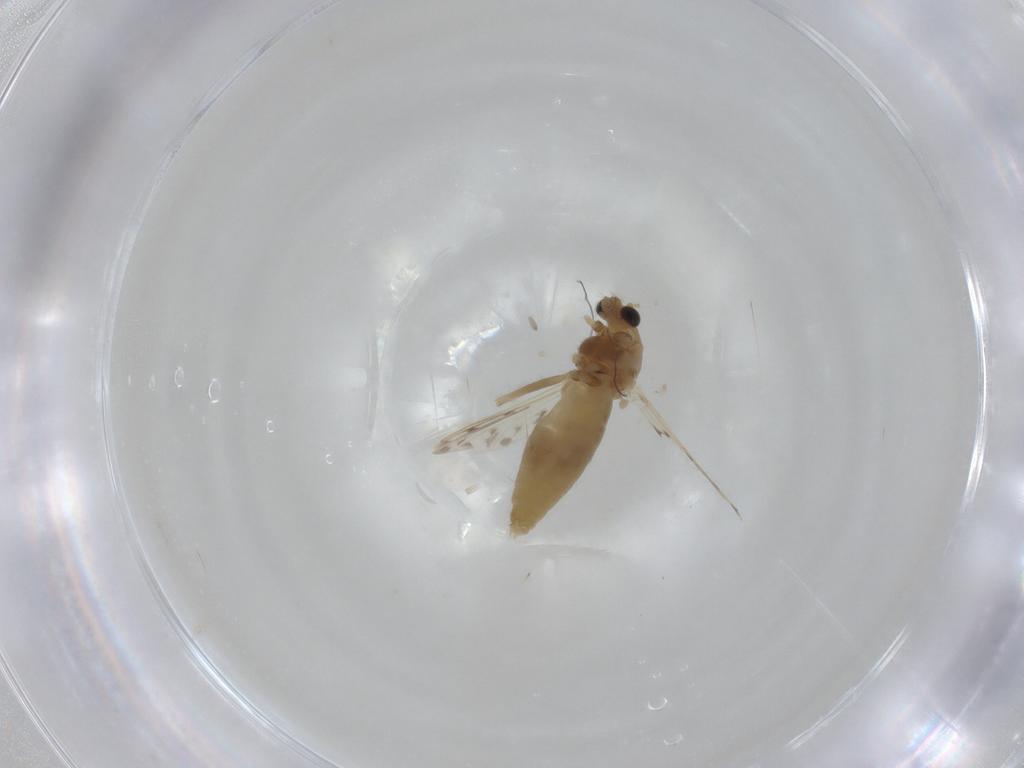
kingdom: Animalia
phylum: Arthropoda
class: Insecta
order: Diptera
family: Chironomidae
